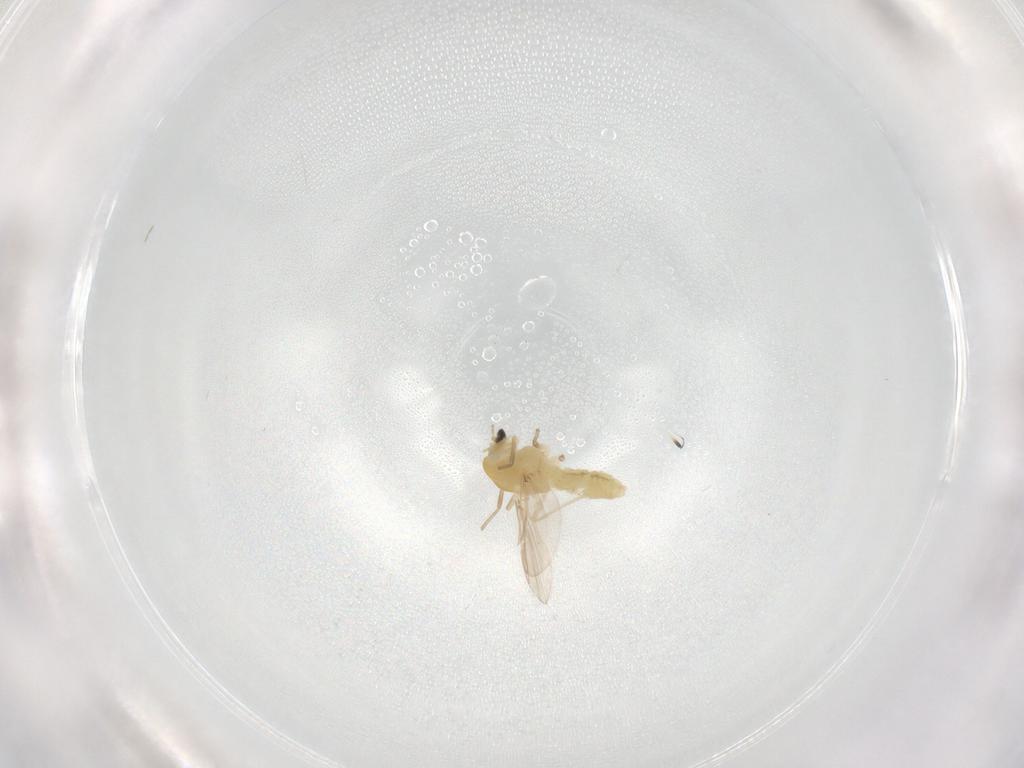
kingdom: Animalia
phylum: Arthropoda
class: Insecta
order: Diptera
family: Chironomidae
